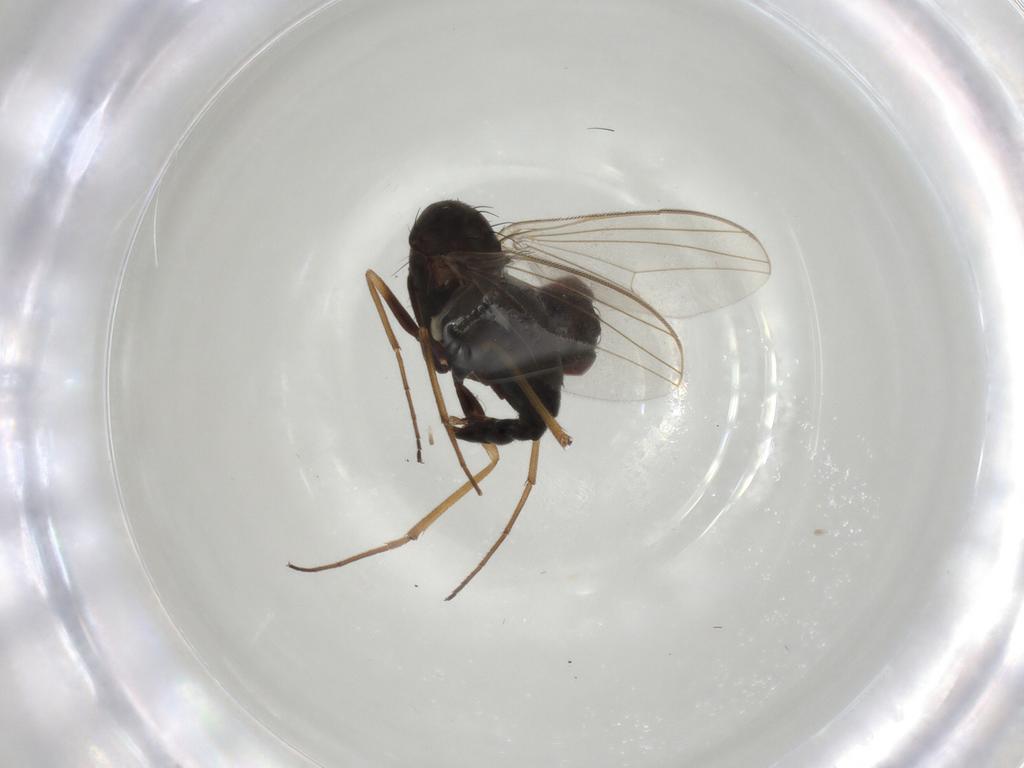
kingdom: Animalia
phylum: Arthropoda
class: Insecta
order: Diptera
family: Dolichopodidae
